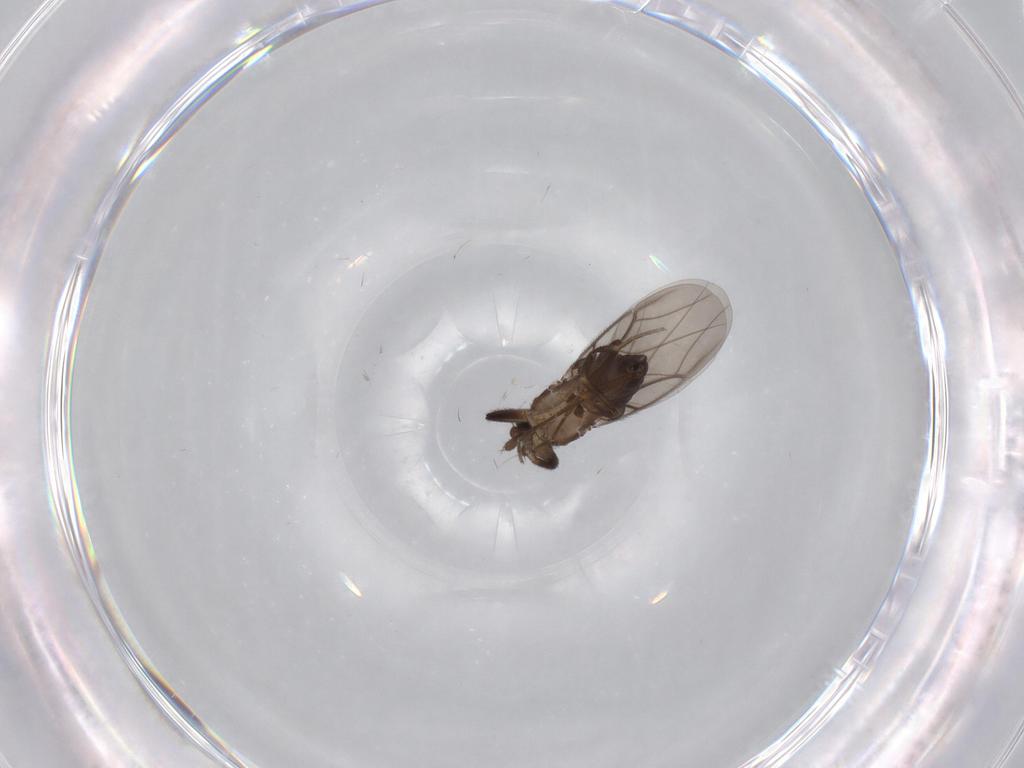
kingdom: Animalia
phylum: Arthropoda
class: Insecta
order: Diptera
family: Phoridae
